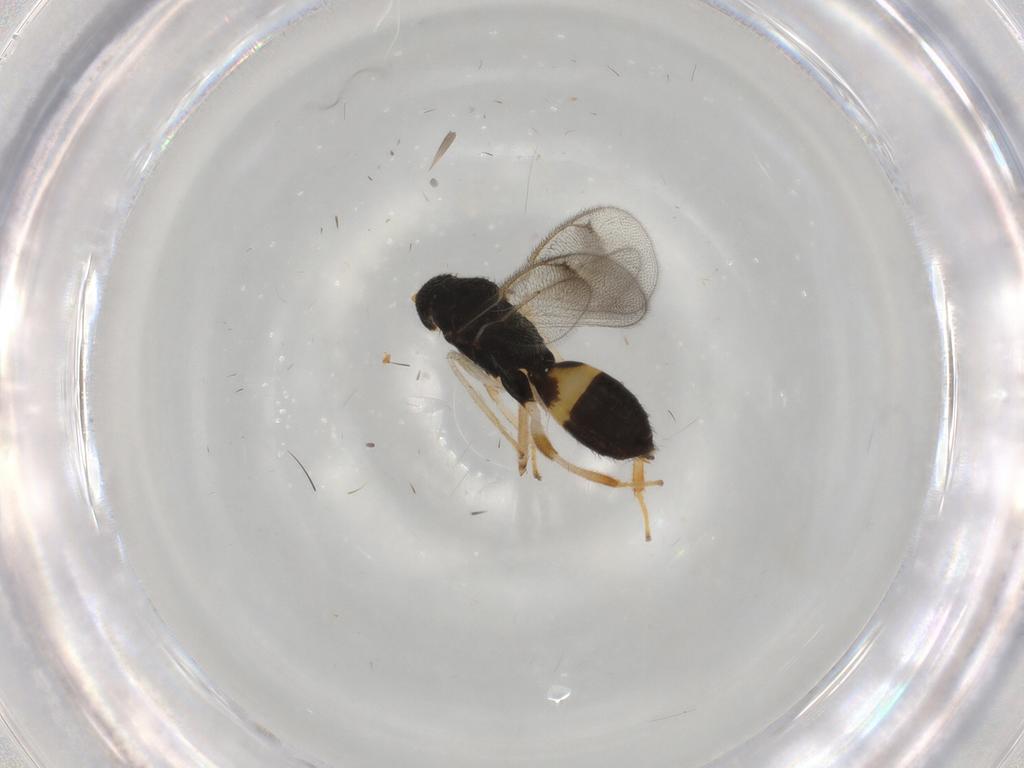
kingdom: Animalia
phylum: Arthropoda
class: Insecta
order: Hymenoptera
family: Eulophidae
